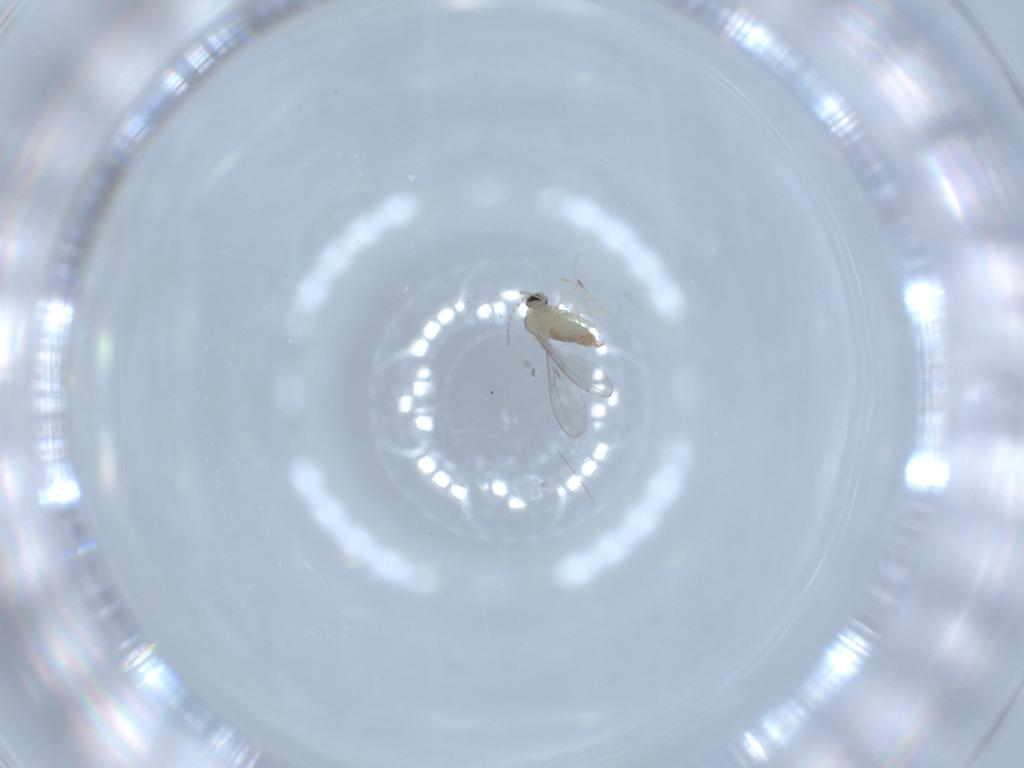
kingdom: Animalia
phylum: Arthropoda
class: Insecta
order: Diptera
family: Cecidomyiidae
